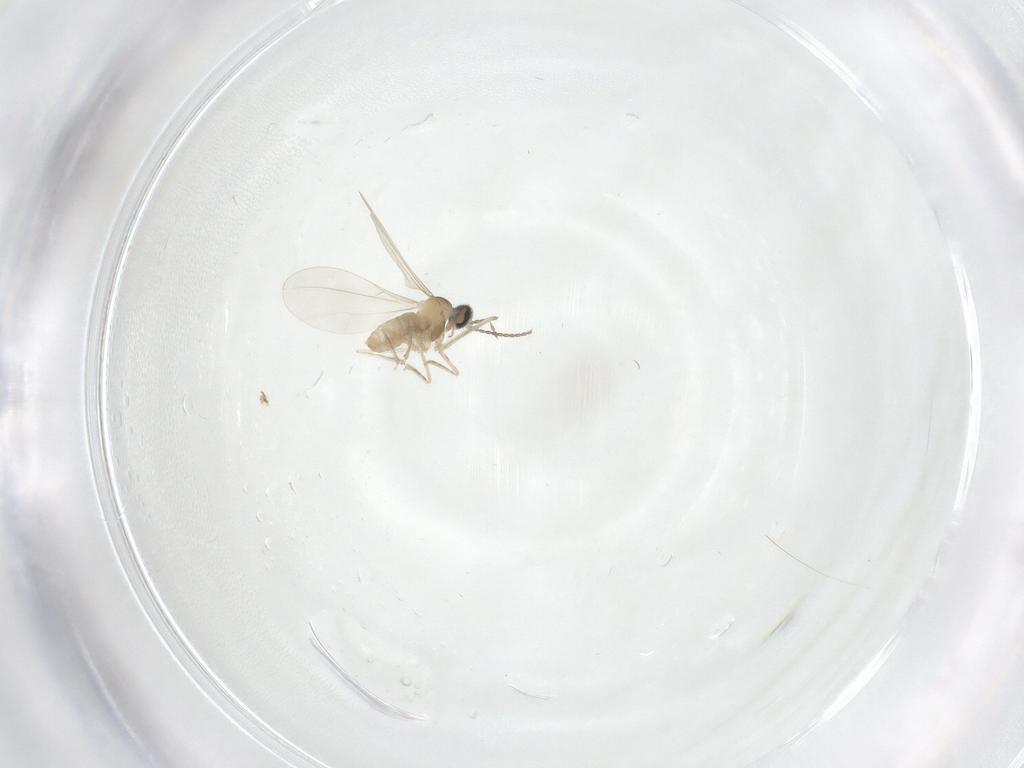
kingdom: Animalia
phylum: Arthropoda
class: Insecta
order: Diptera
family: Cecidomyiidae
